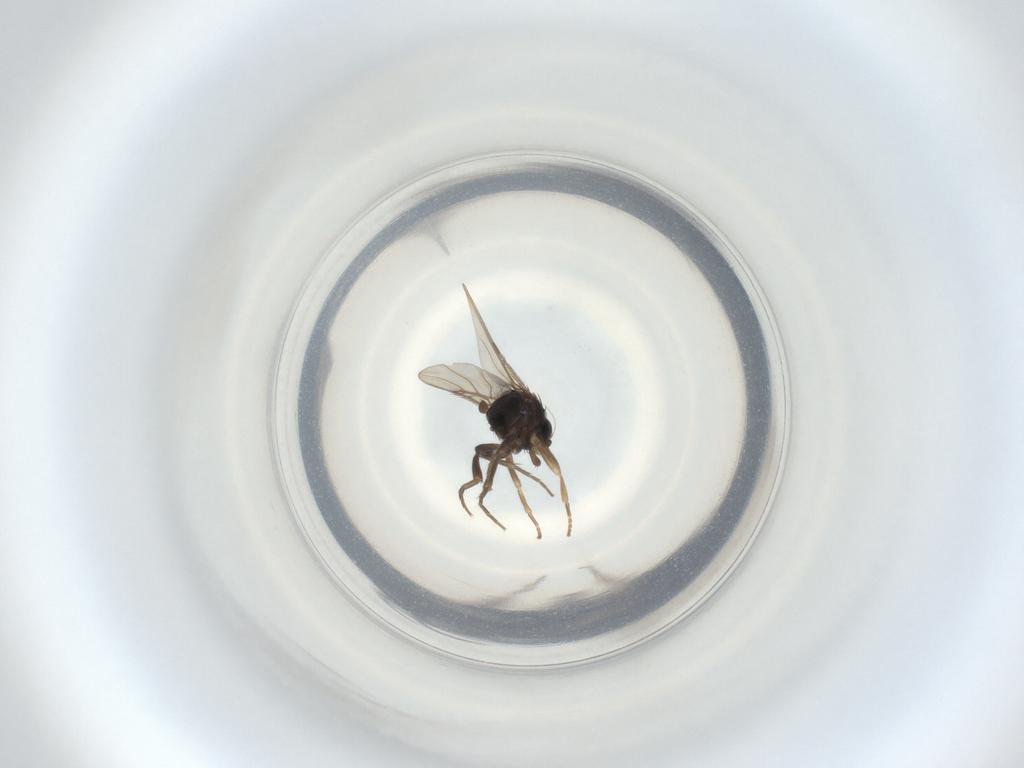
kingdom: Animalia
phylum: Arthropoda
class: Insecta
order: Diptera
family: Phoridae
